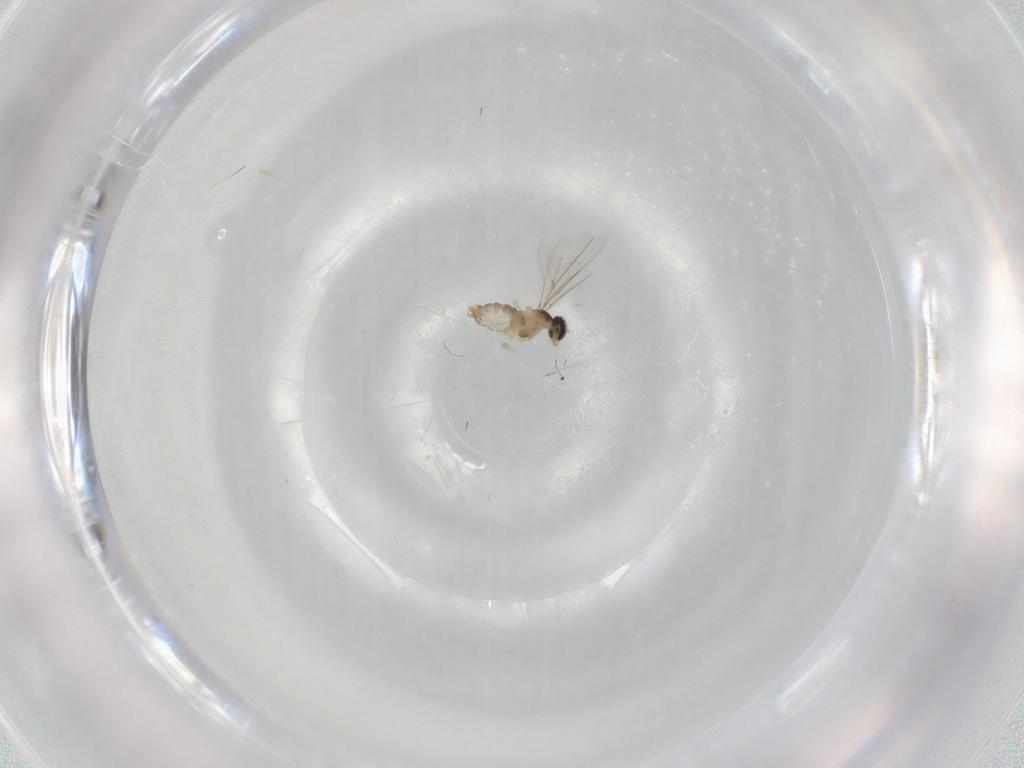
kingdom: Animalia
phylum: Arthropoda
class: Insecta
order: Diptera
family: Cecidomyiidae
